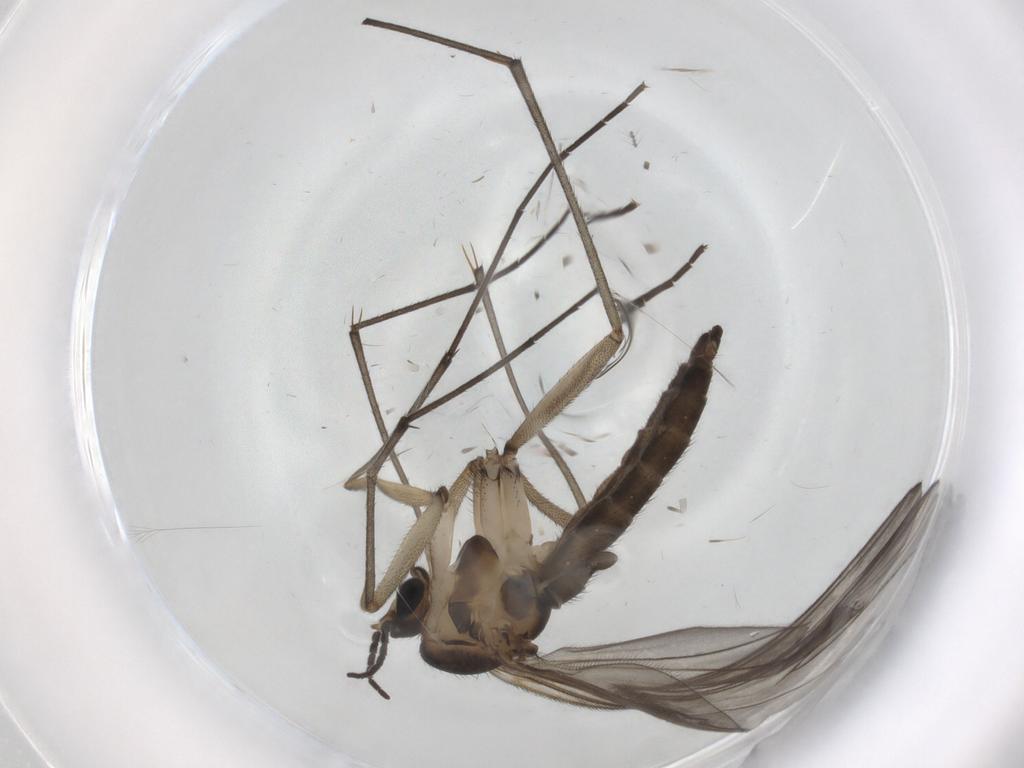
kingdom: Animalia
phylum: Arthropoda
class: Insecta
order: Diptera
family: Sciaridae
